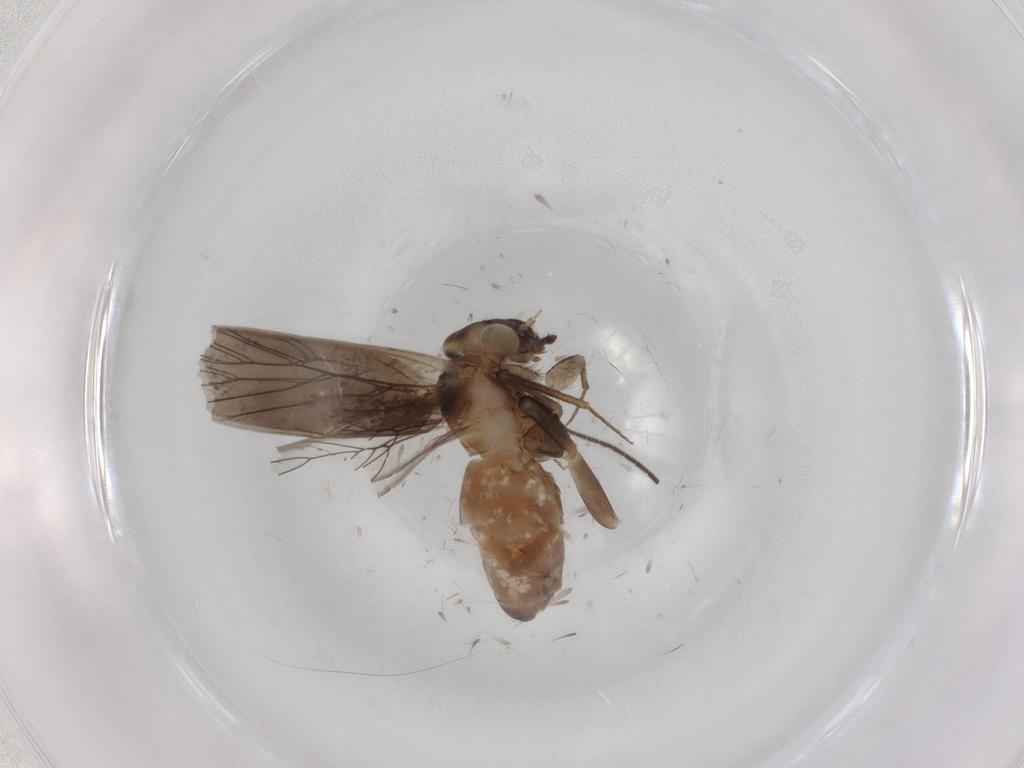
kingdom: Animalia
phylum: Arthropoda
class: Insecta
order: Psocodea
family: Lepidopsocidae
